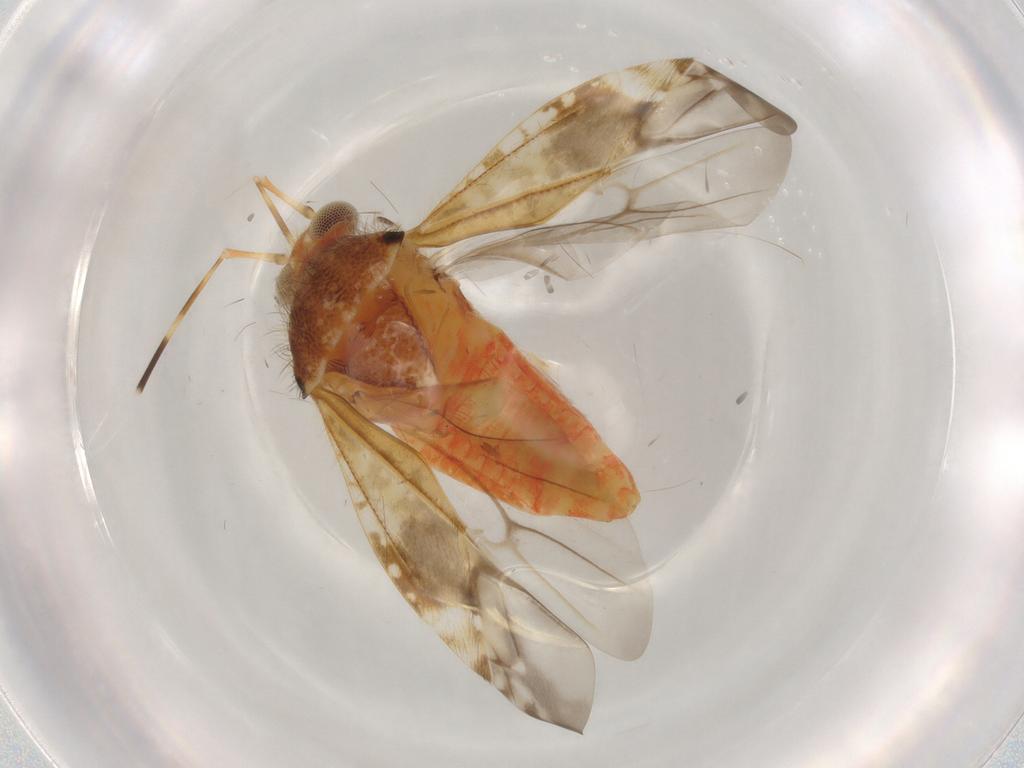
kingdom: Animalia
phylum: Arthropoda
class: Insecta
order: Hemiptera
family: Miridae
